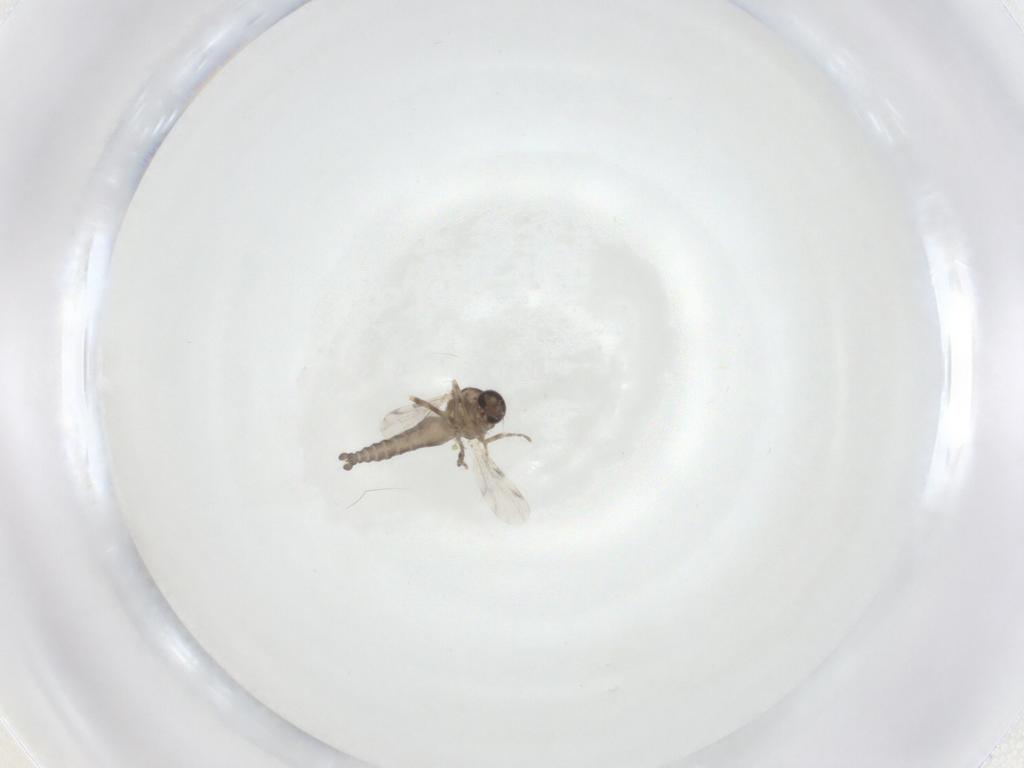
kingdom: Animalia
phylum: Arthropoda
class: Insecta
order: Diptera
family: Ceratopogonidae
